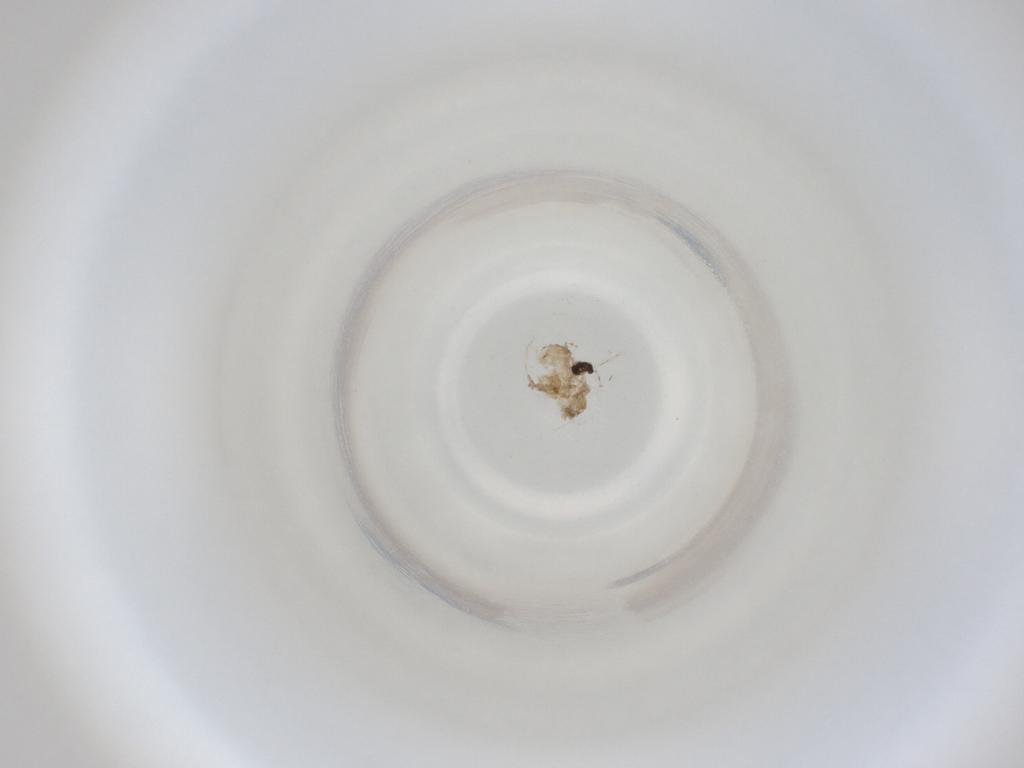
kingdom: Animalia
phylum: Arthropoda
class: Insecta
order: Diptera
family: Cecidomyiidae
